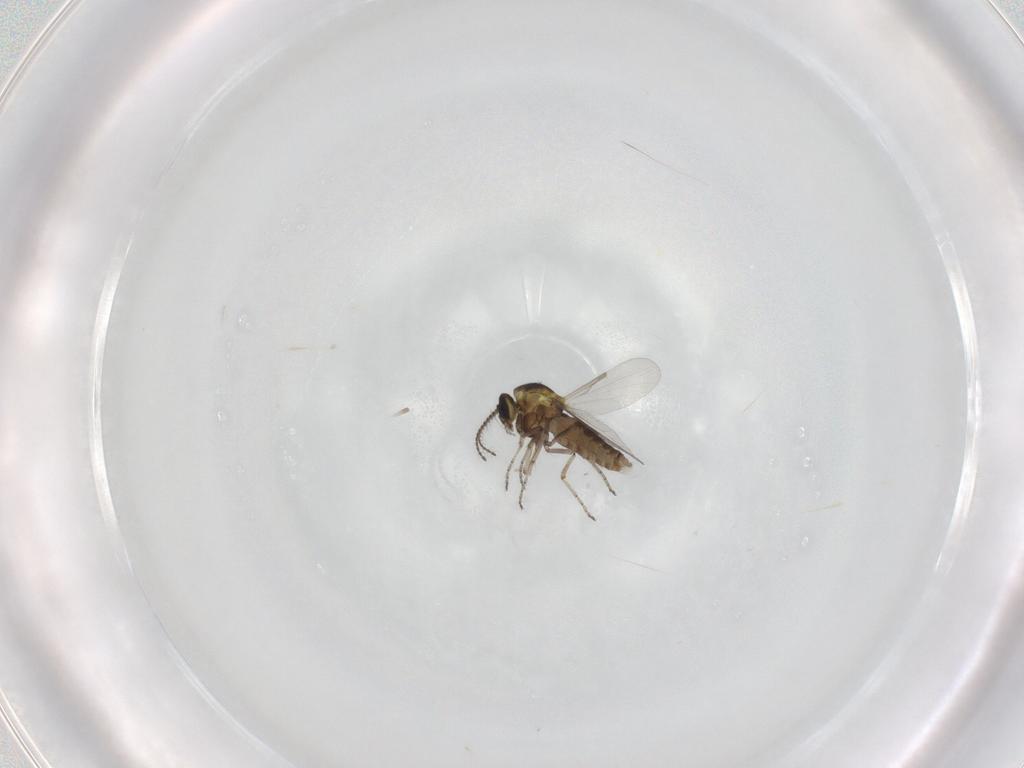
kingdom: Animalia
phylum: Arthropoda
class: Insecta
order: Diptera
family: Ceratopogonidae
